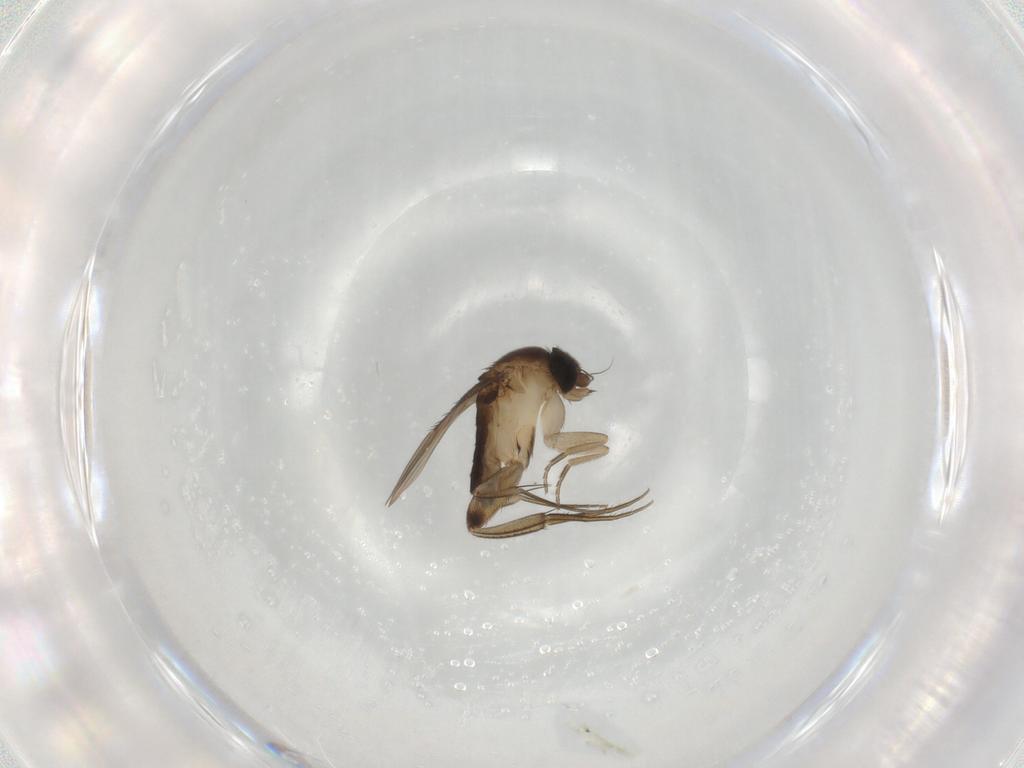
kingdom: Animalia
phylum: Arthropoda
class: Insecta
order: Diptera
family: Phoridae
